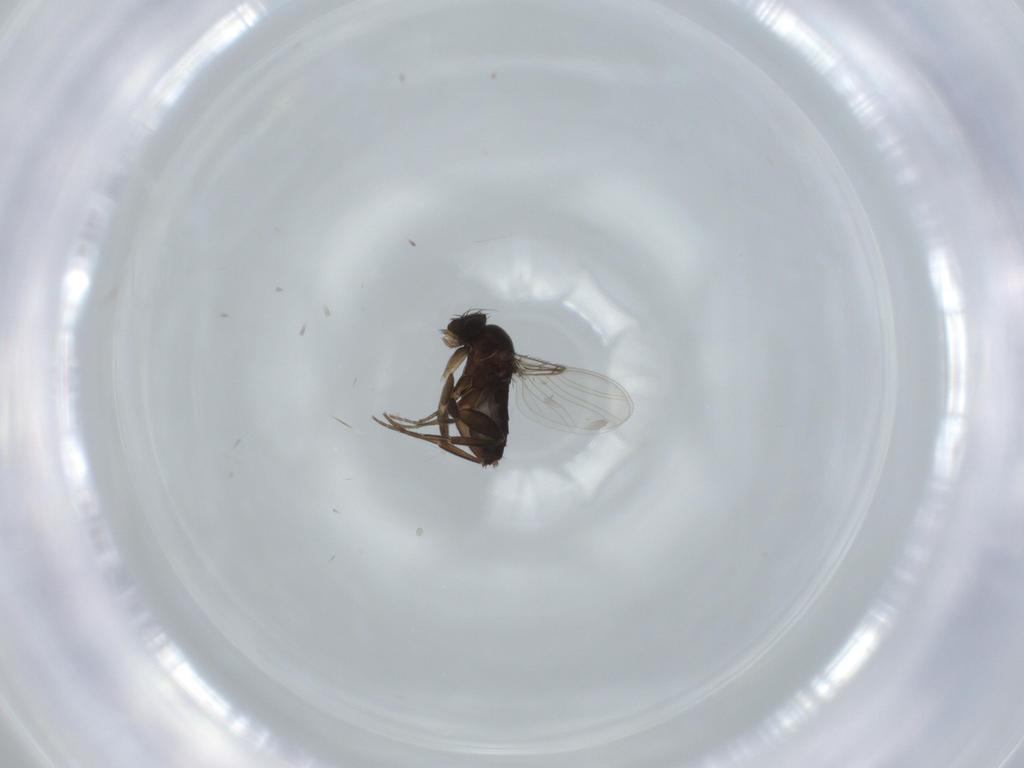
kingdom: Animalia
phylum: Arthropoda
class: Insecta
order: Diptera
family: Phoridae
